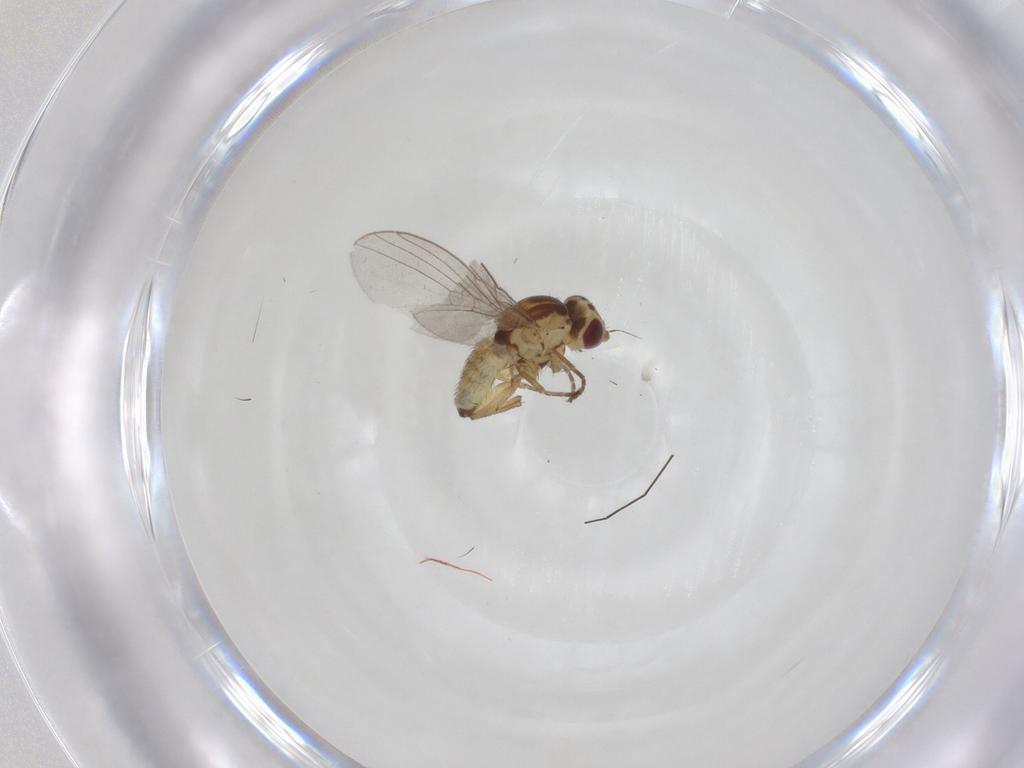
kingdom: Animalia
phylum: Arthropoda
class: Insecta
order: Diptera
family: Agromyzidae
